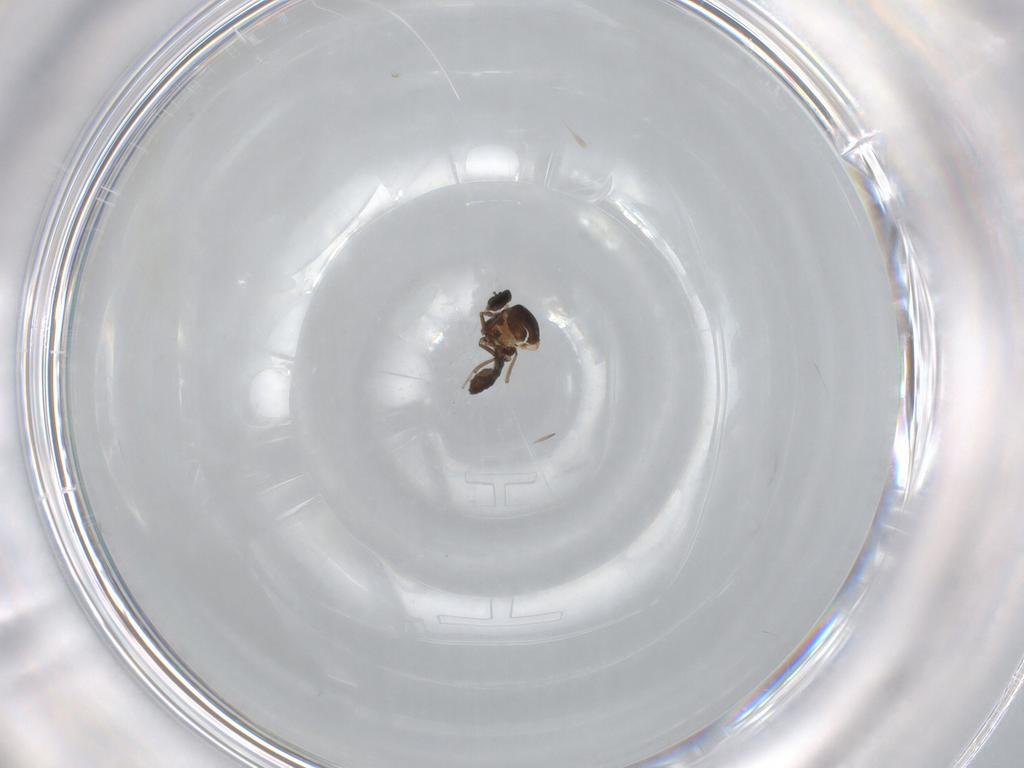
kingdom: Animalia
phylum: Arthropoda
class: Insecta
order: Diptera
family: Ceratopogonidae
